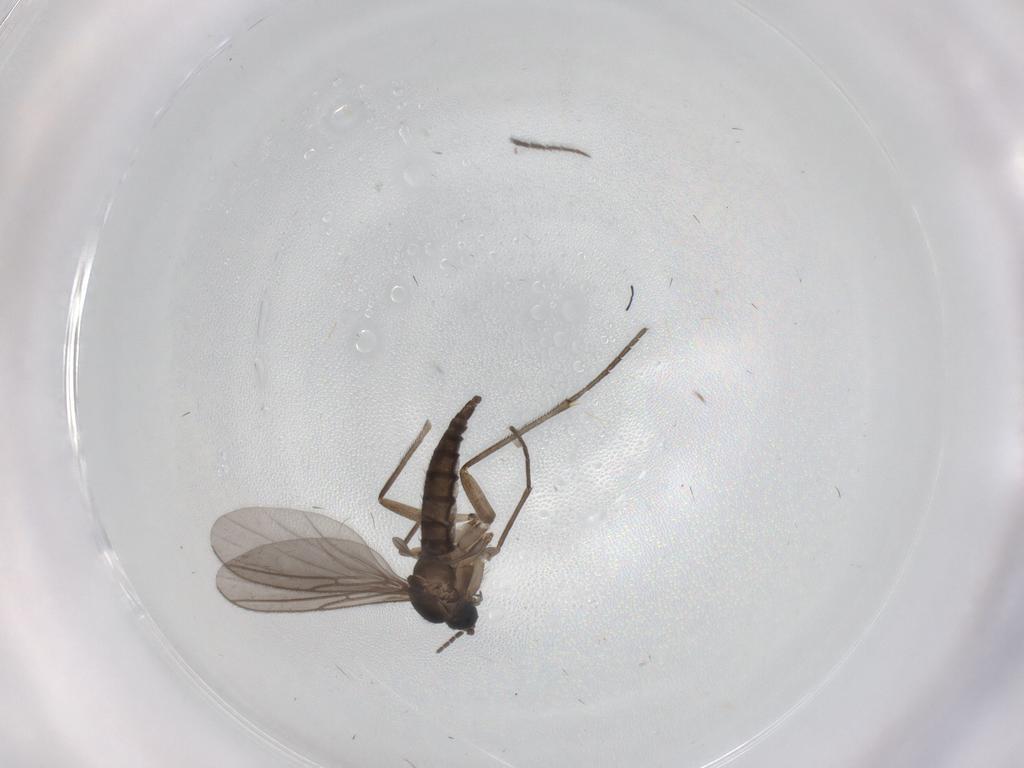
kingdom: Animalia
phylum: Arthropoda
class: Insecta
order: Diptera
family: Sciaridae
